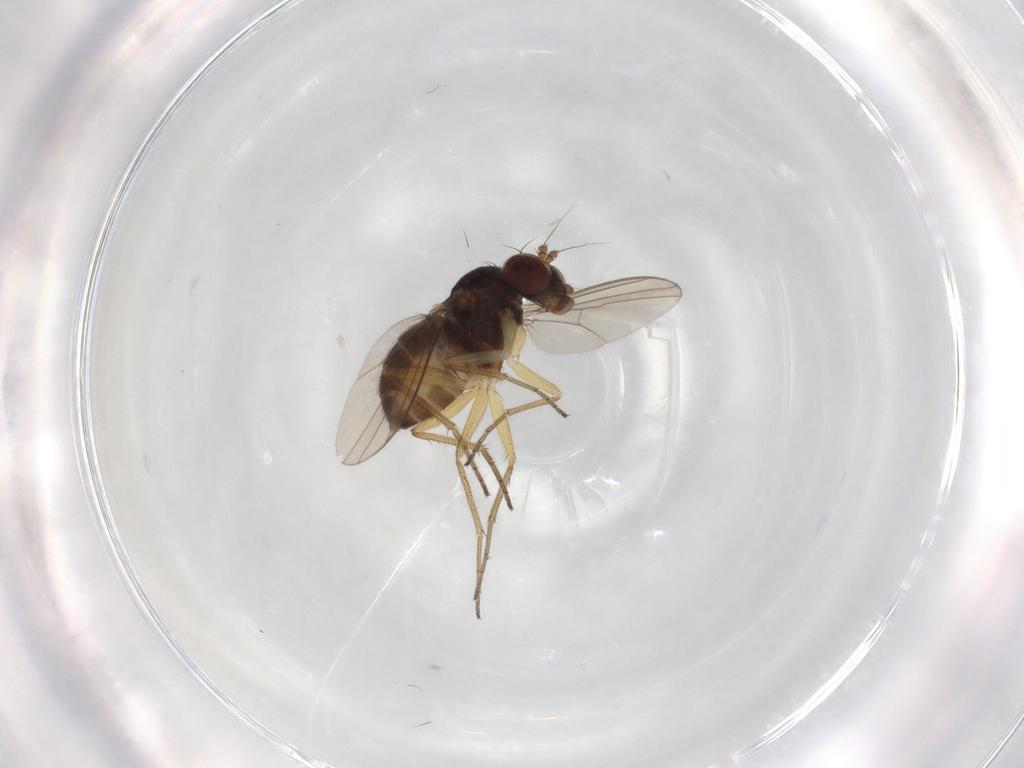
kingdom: Animalia
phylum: Arthropoda
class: Insecta
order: Diptera
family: Dolichopodidae
